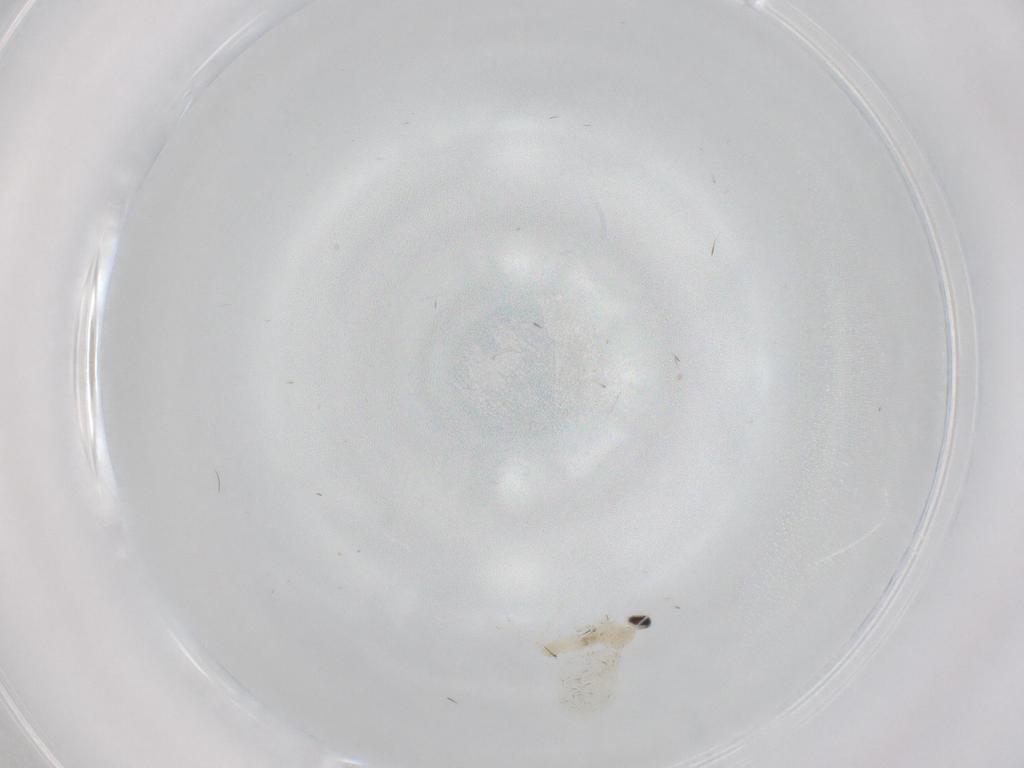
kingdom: Animalia
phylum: Arthropoda
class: Insecta
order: Diptera
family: Cecidomyiidae
